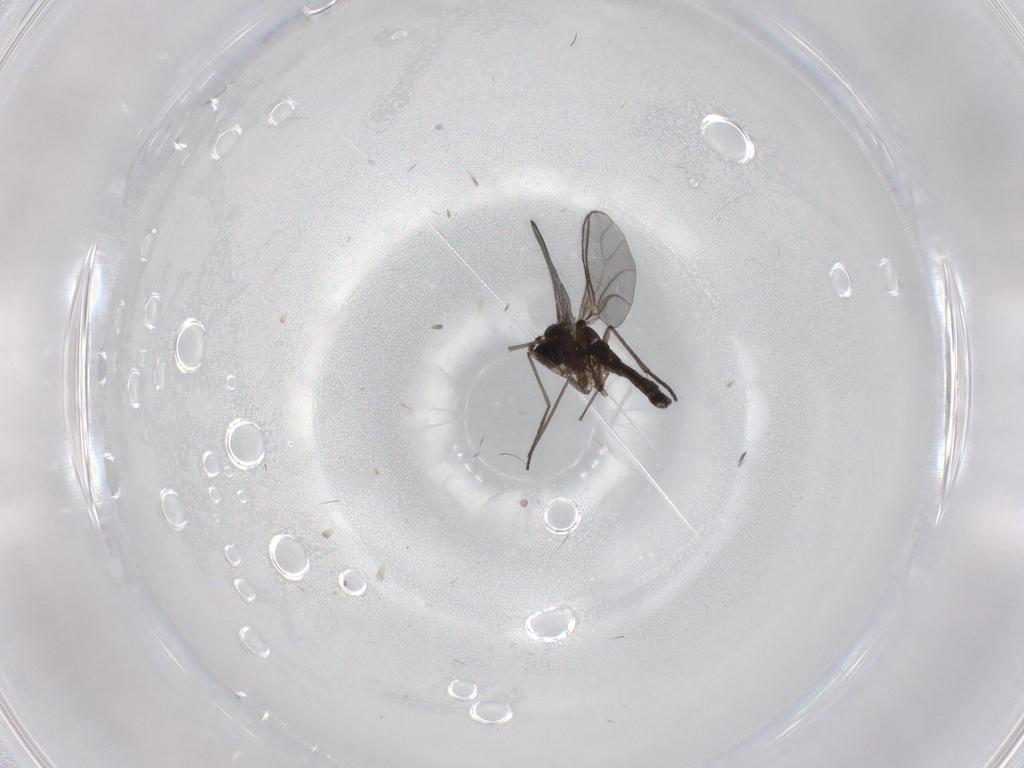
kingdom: Animalia
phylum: Arthropoda
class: Insecta
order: Diptera
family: Sciaridae
